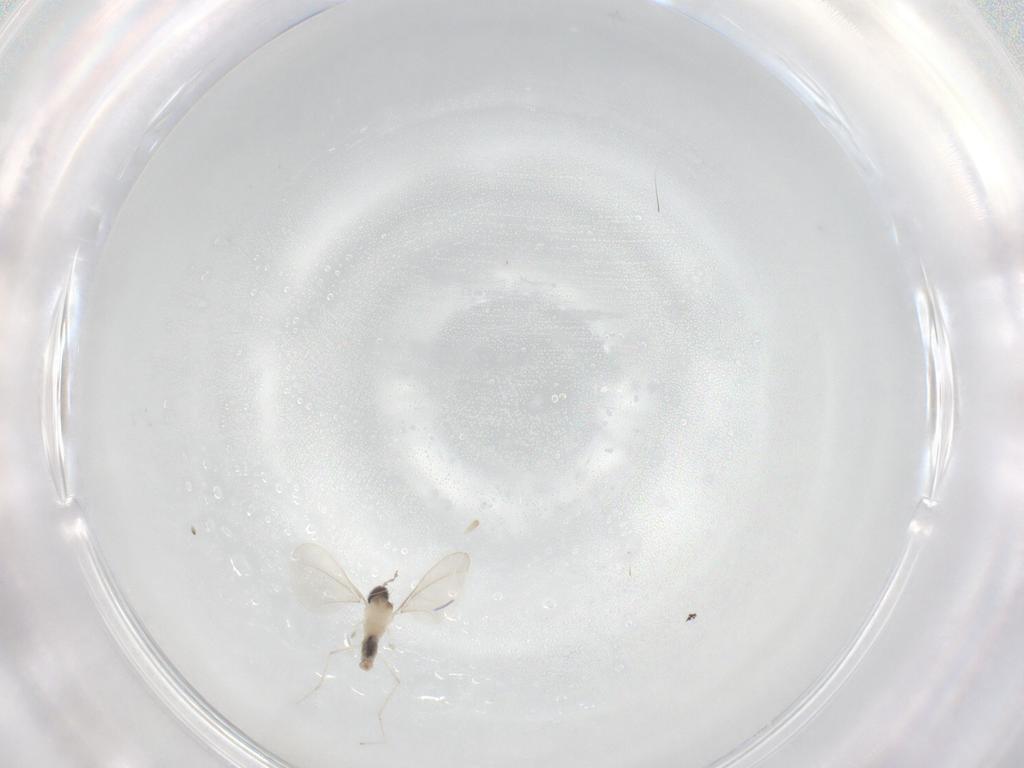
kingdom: Animalia
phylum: Arthropoda
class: Insecta
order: Diptera
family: Cecidomyiidae
